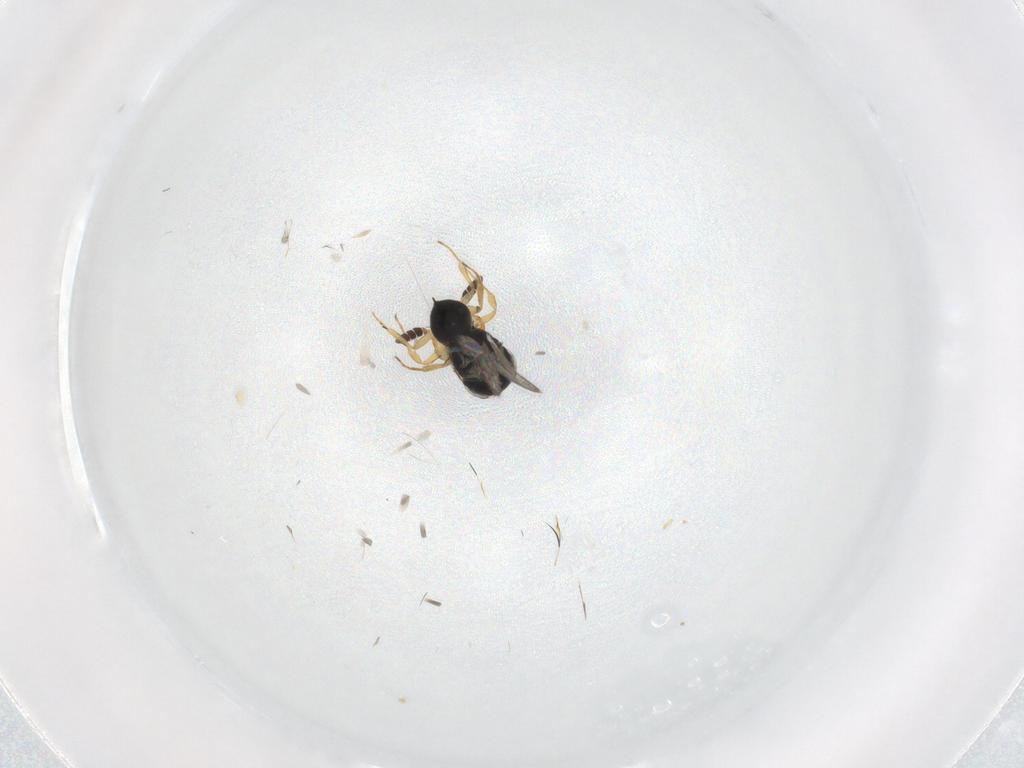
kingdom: Animalia
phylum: Arthropoda
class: Insecta
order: Hymenoptera
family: Scelionidae
